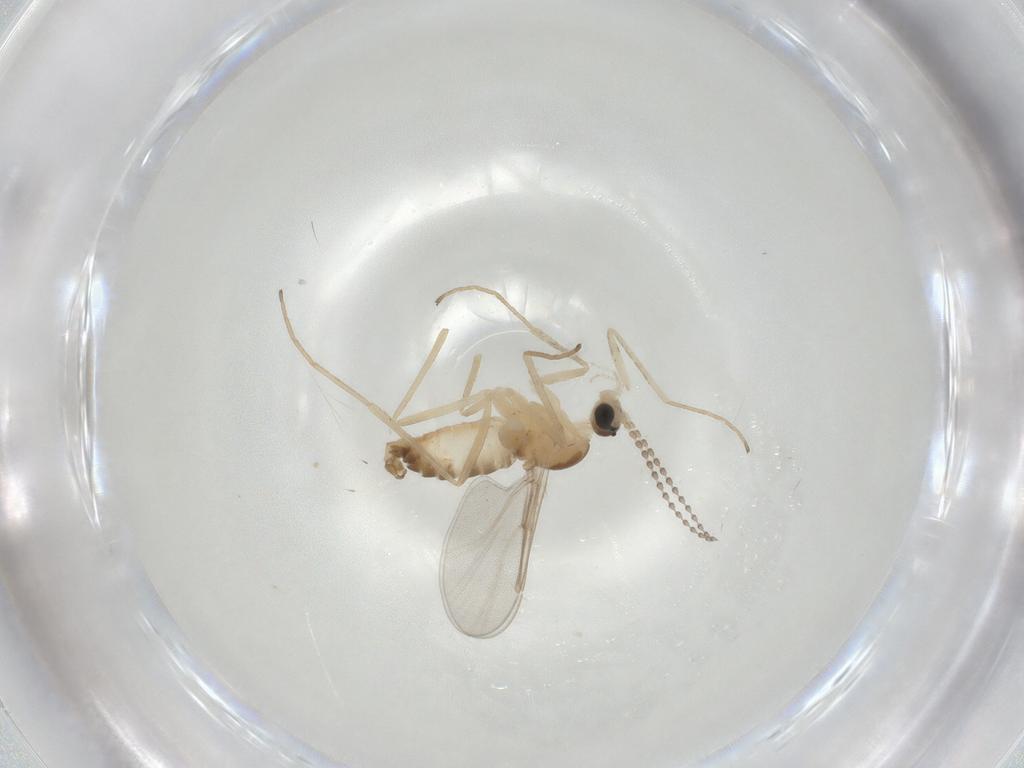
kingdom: Animalia
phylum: Arthropoda
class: Insecta
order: Diptera
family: Cecidomyiidae
